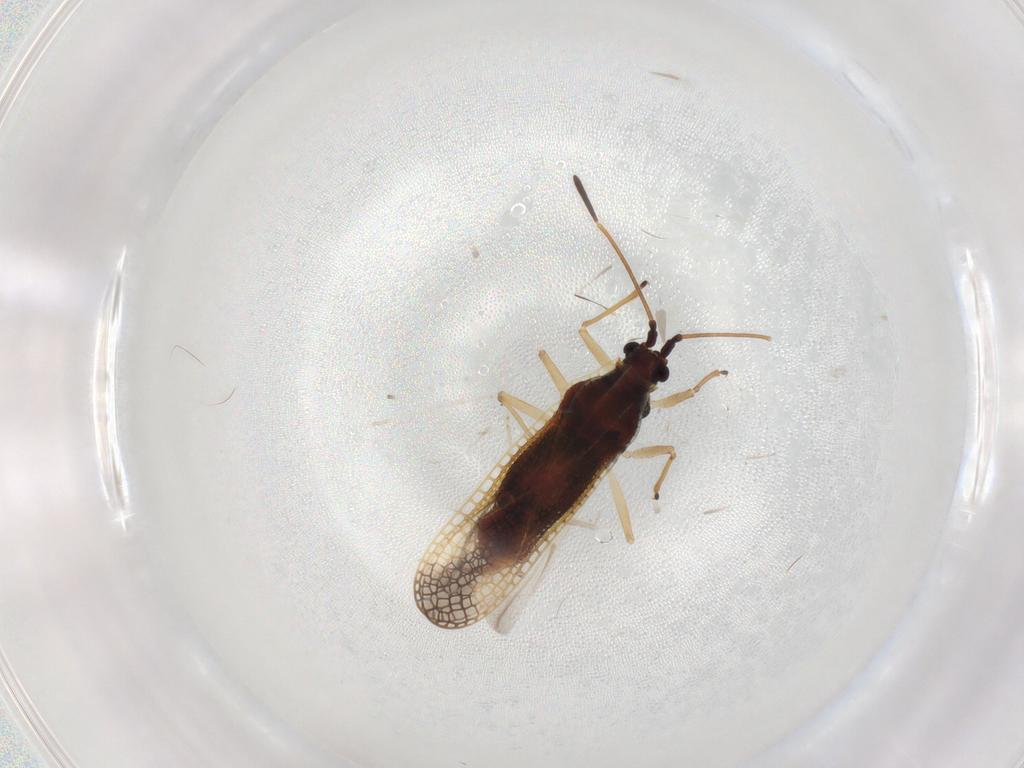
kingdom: Animalia
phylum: Arthropoda
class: Insecta
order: Hemiptera
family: Tingidae
